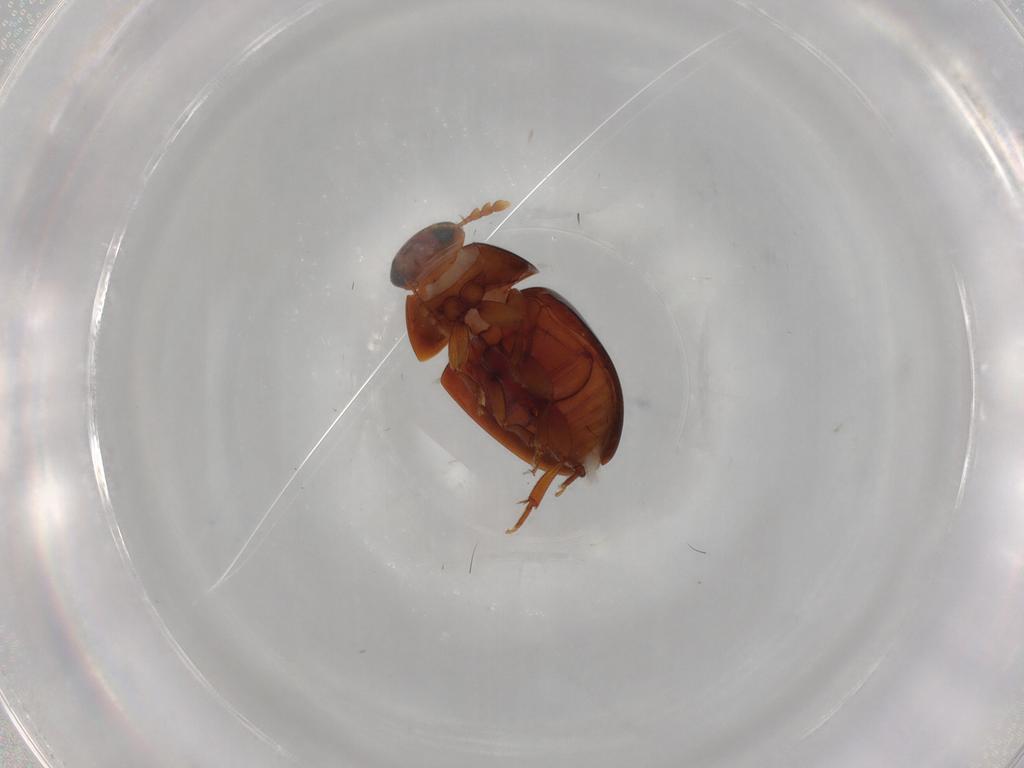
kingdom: Animalia
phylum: Arthropoda
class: Insecta
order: Coleoptera
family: Phalacridae
